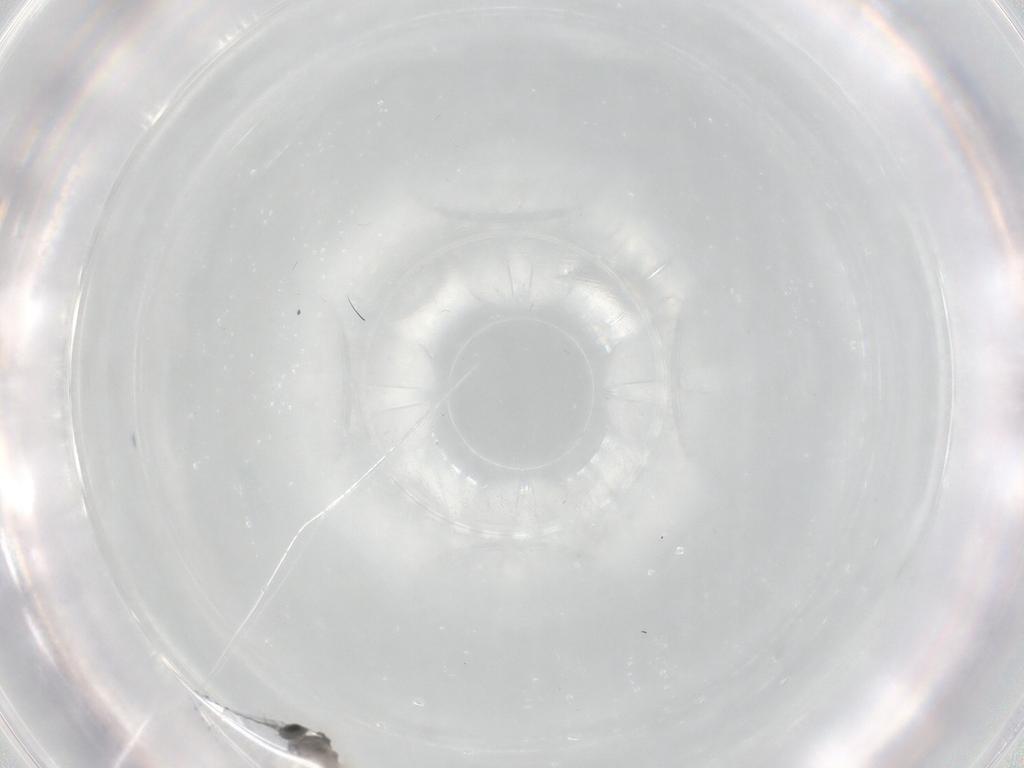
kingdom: Animalia
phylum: Arthropoda
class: Insecta
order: Diptera
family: Cecidomyiidae
